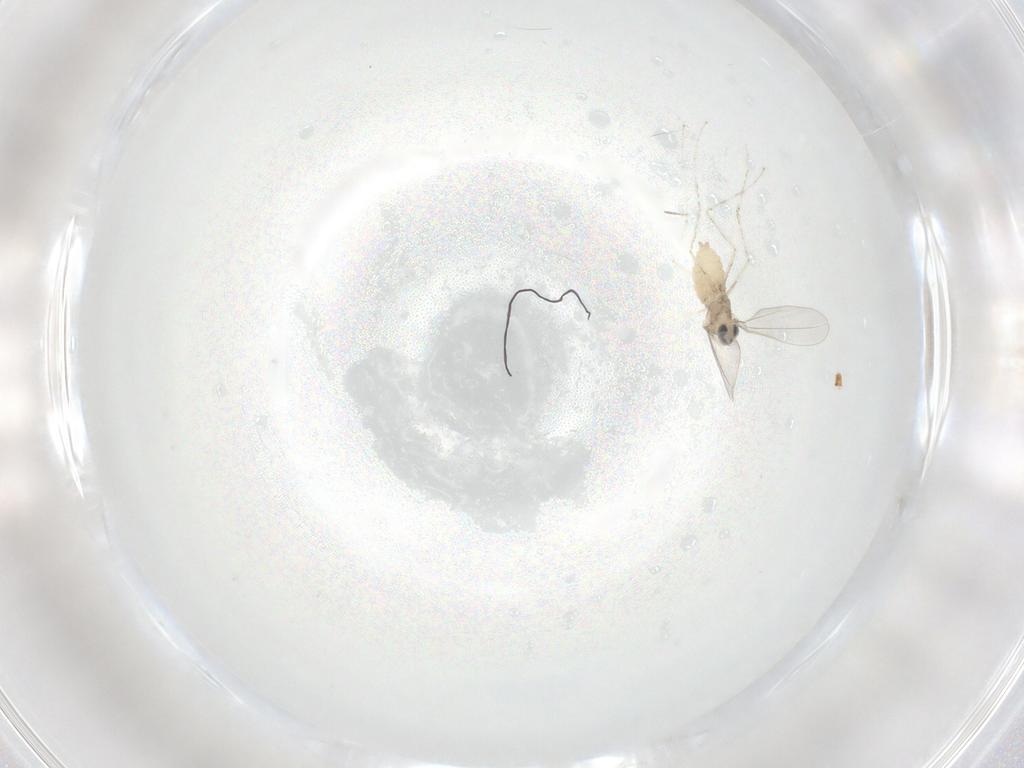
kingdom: Animalia
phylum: Arthropoda
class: Insecta
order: Diptera
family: Cecidomyiidae
